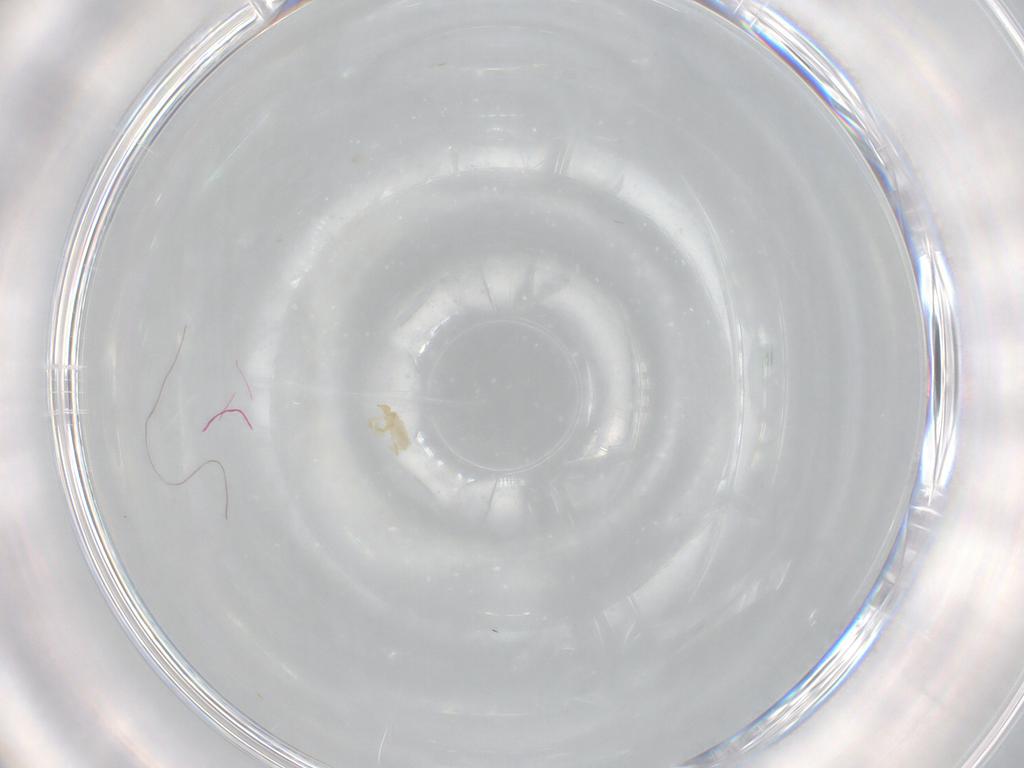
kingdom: Animalia
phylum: Arthropoda
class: Arachnida
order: Trombidiformes
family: Erythraeidae
